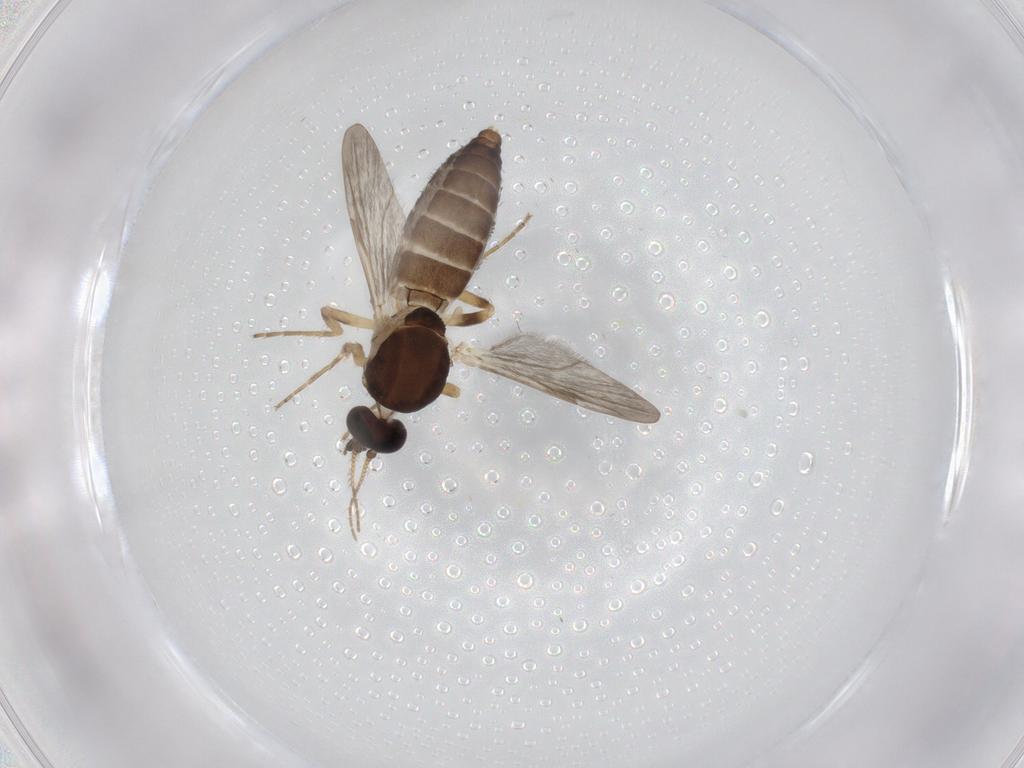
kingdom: Animalia
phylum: Arthropoda
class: Insecta
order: Diptera
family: Ceratopogonidae
